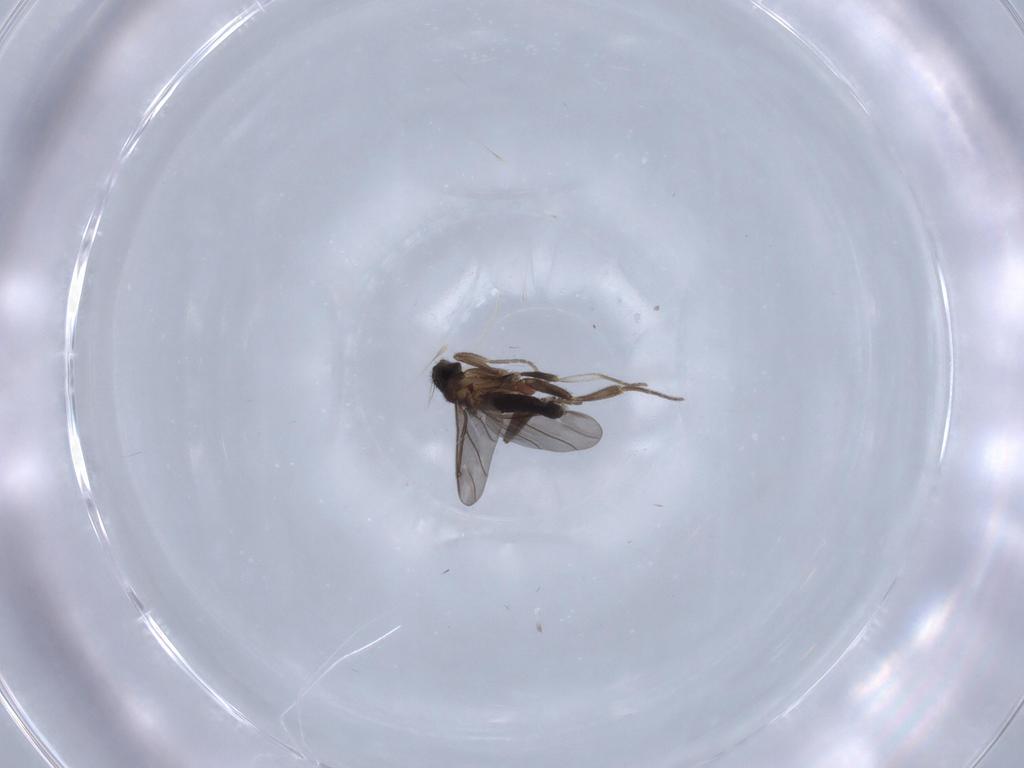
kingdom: Animalia
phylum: Arthropoda
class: Insecta
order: Diptera
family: Phoridae
